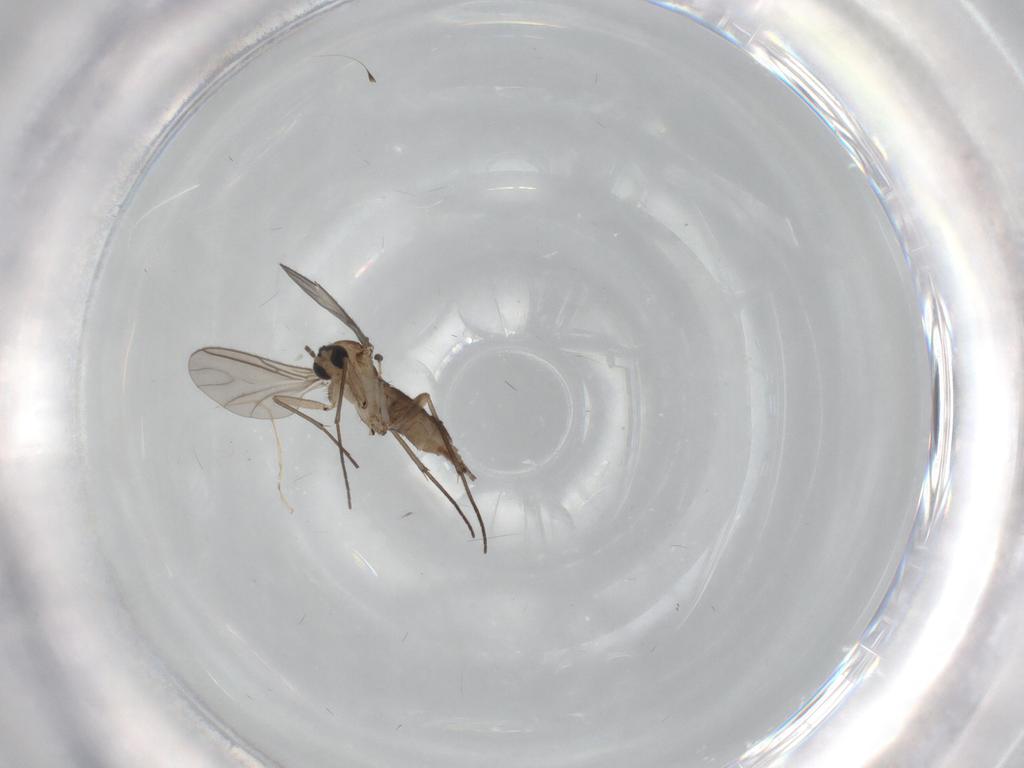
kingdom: Animalia
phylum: Arthropoda
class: Insecta
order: Diptera
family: Sciaridae
